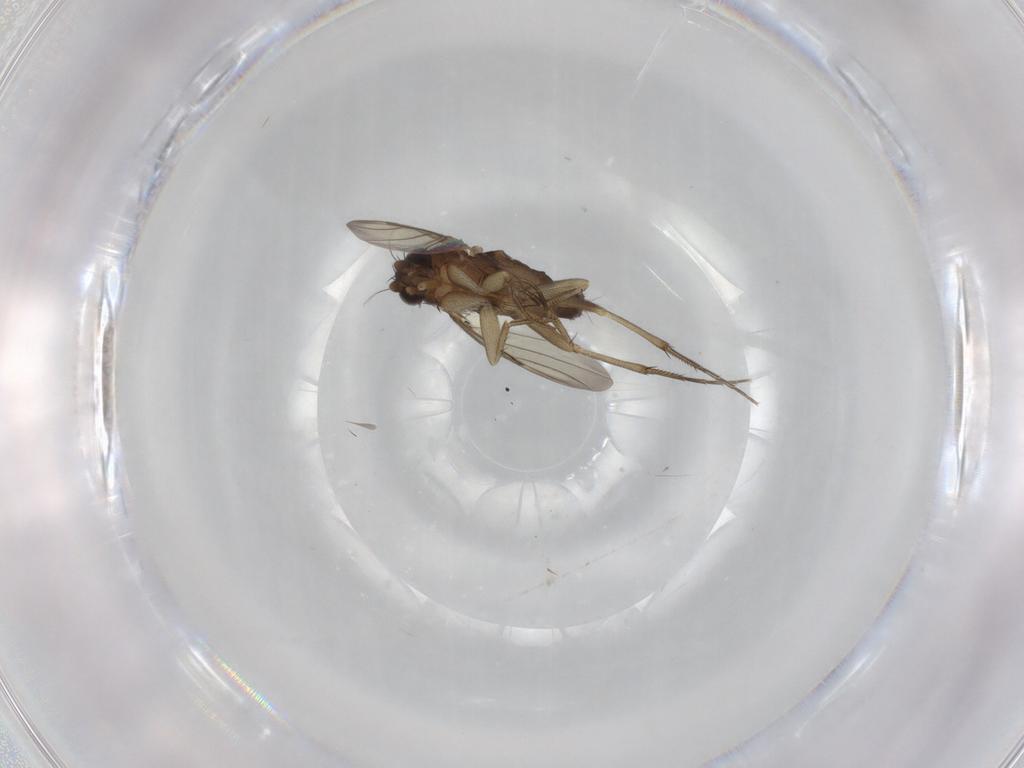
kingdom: Animalia
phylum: Arthropoda
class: Insecta
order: Diptera
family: Phoridae
